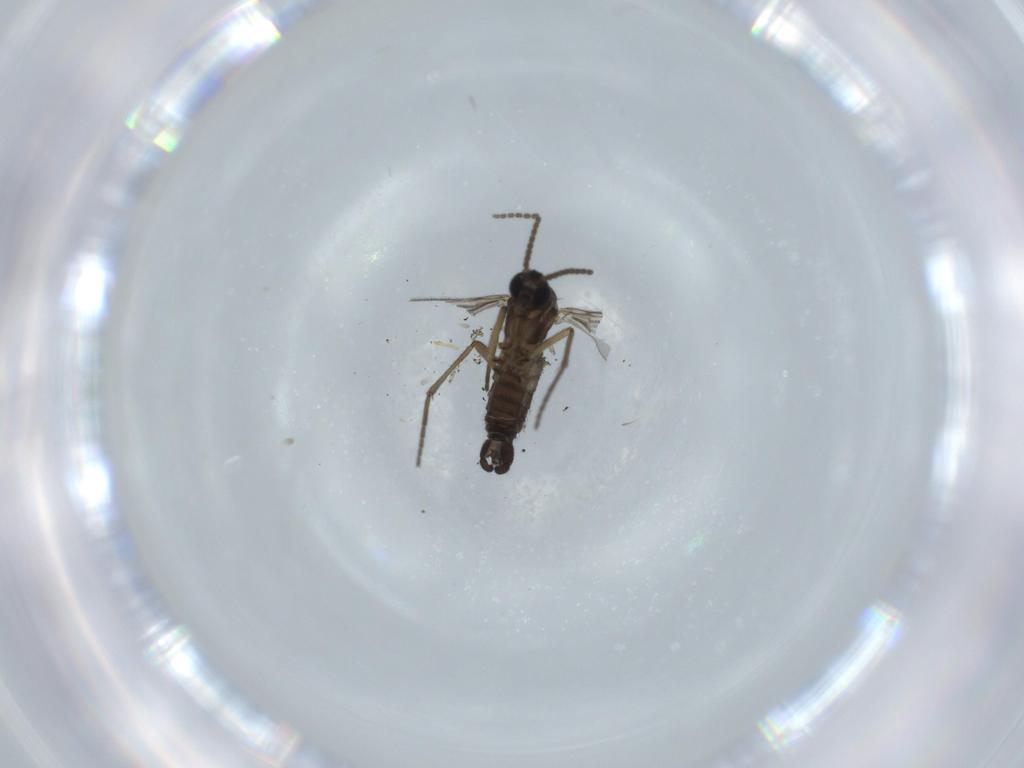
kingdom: Animalia
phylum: Arthropoda
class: Insecta
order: Diptera
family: Sciaridae
